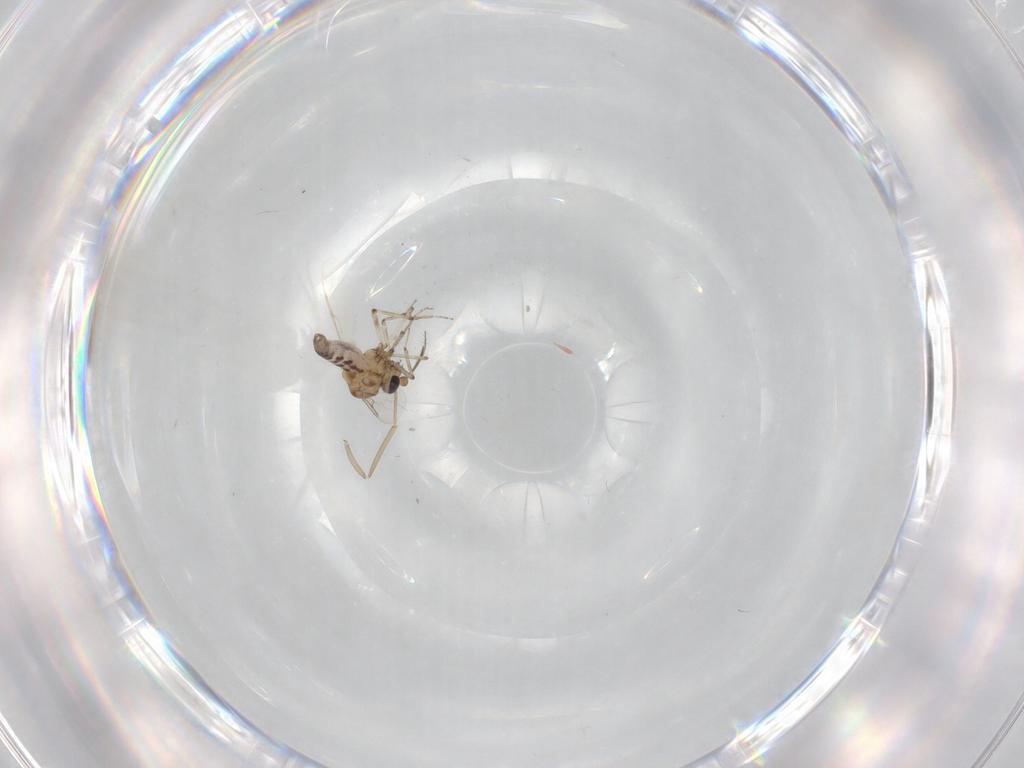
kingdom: Animalia
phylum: Arthropoda
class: Insecta
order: Diptera
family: Ceratopogonidae
